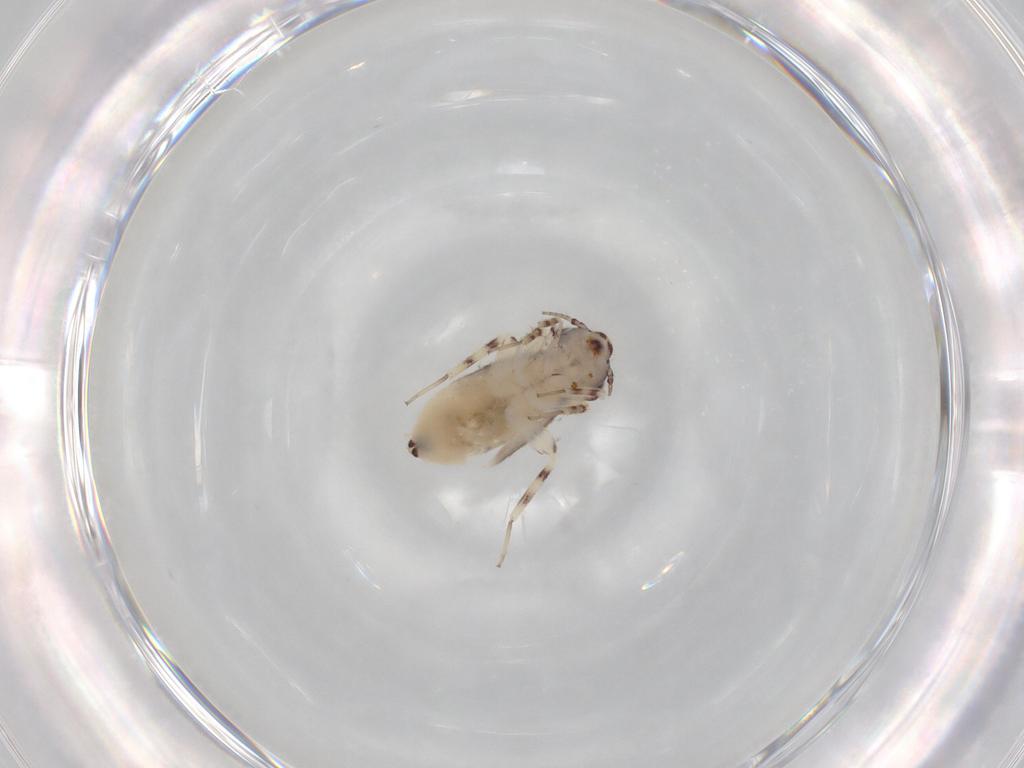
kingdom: Animalia
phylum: Arthropoda
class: Insecta
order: Psocodea
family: Lepidopsocidae
